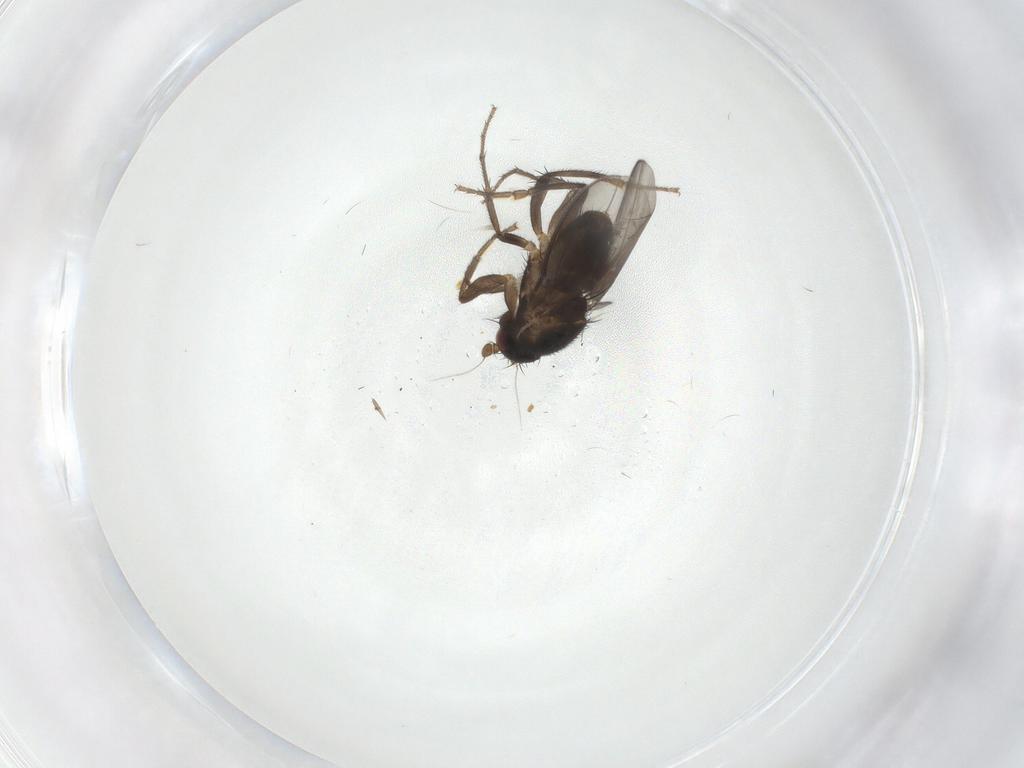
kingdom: Animalia
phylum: Arthropoda
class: Insecta
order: Diptera
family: Sphaeroceridae
